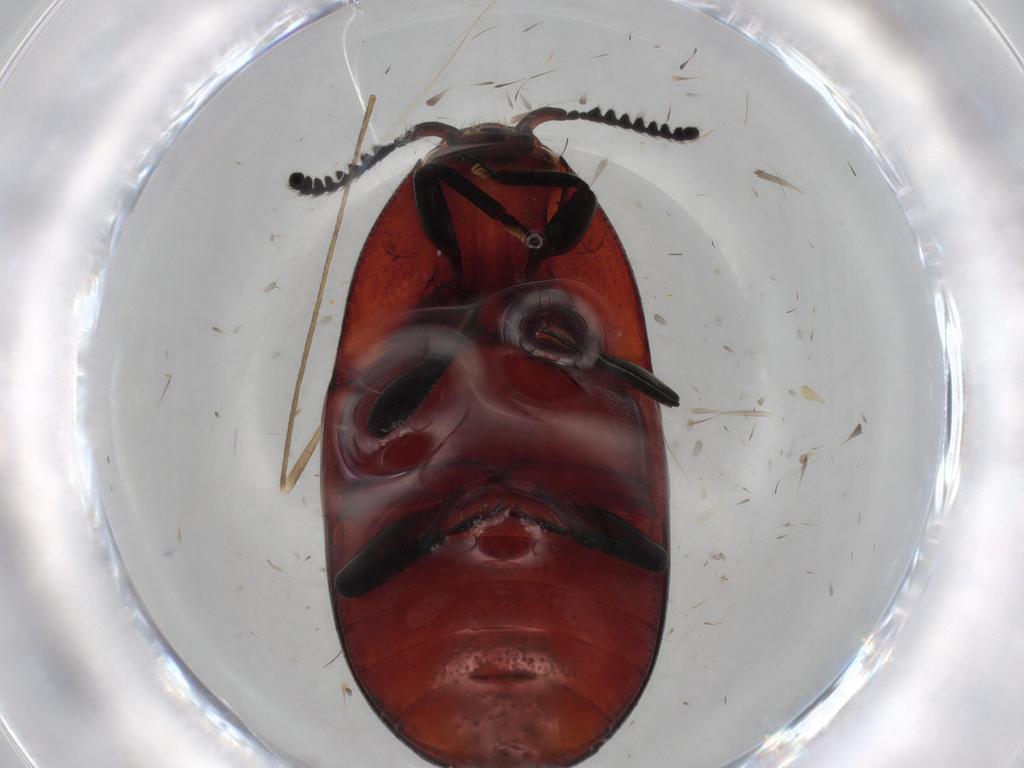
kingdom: Animalia
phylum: Arthropoda
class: Insecta
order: Coleoptera
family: Elateridae
